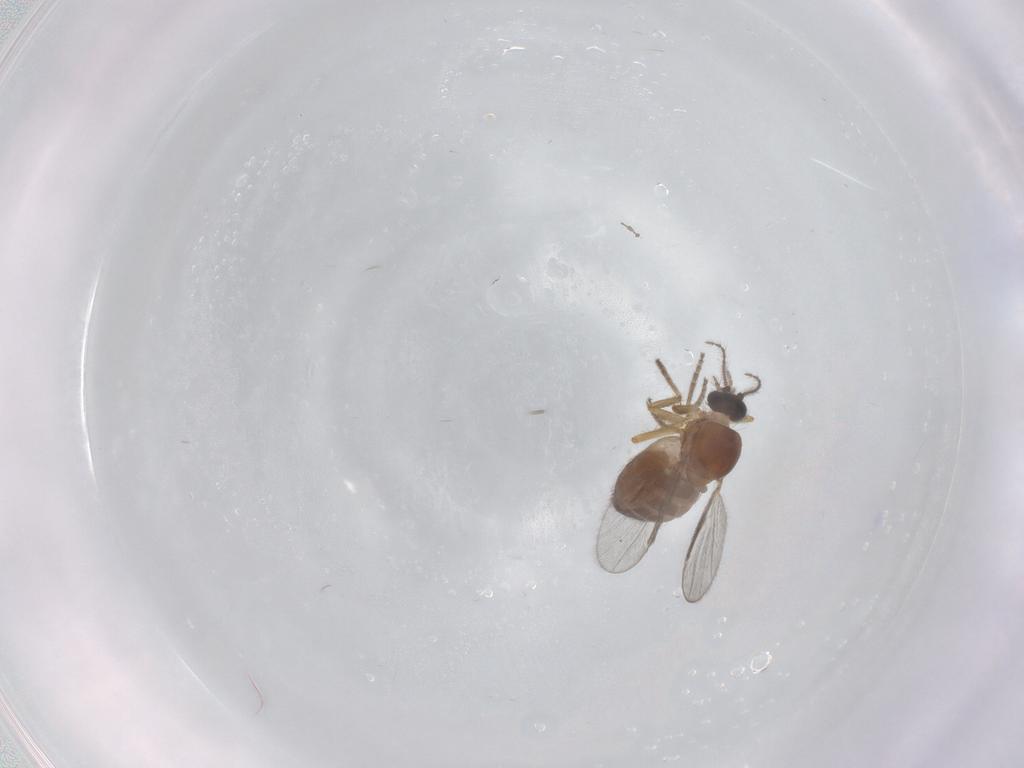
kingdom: Animalia
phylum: Arthropoda
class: Insecta
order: Diptera
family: Ceratopogonidae
